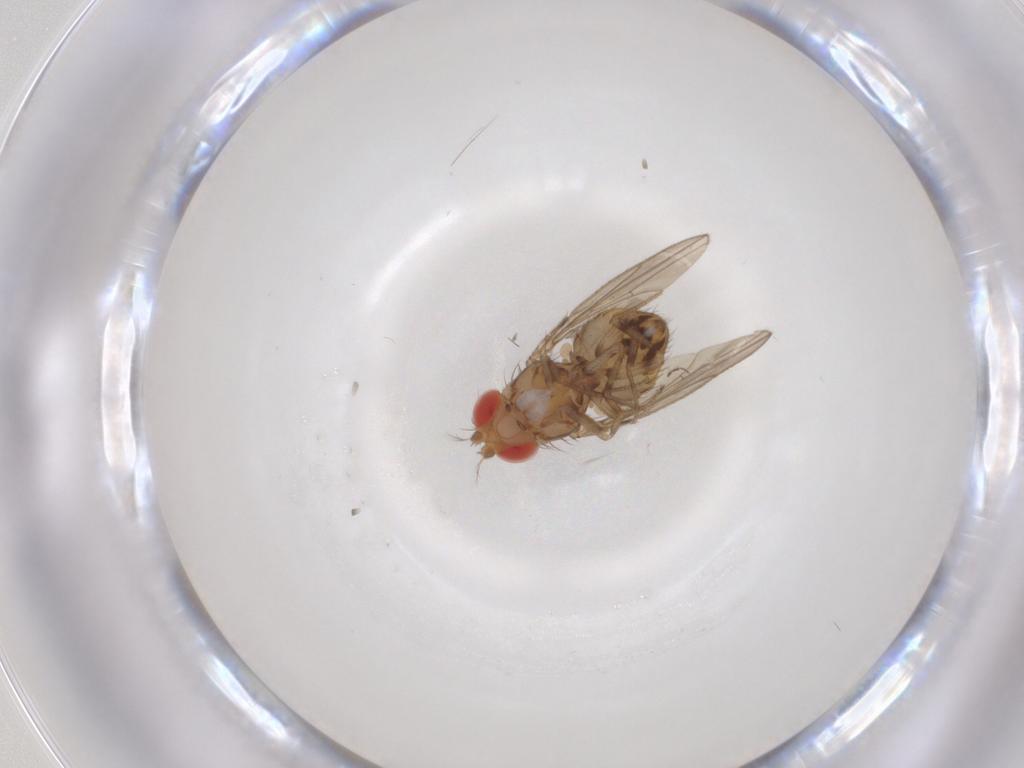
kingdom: Animalia
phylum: Arthropoda
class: Insecta
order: Diptera
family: Drosophilidae
